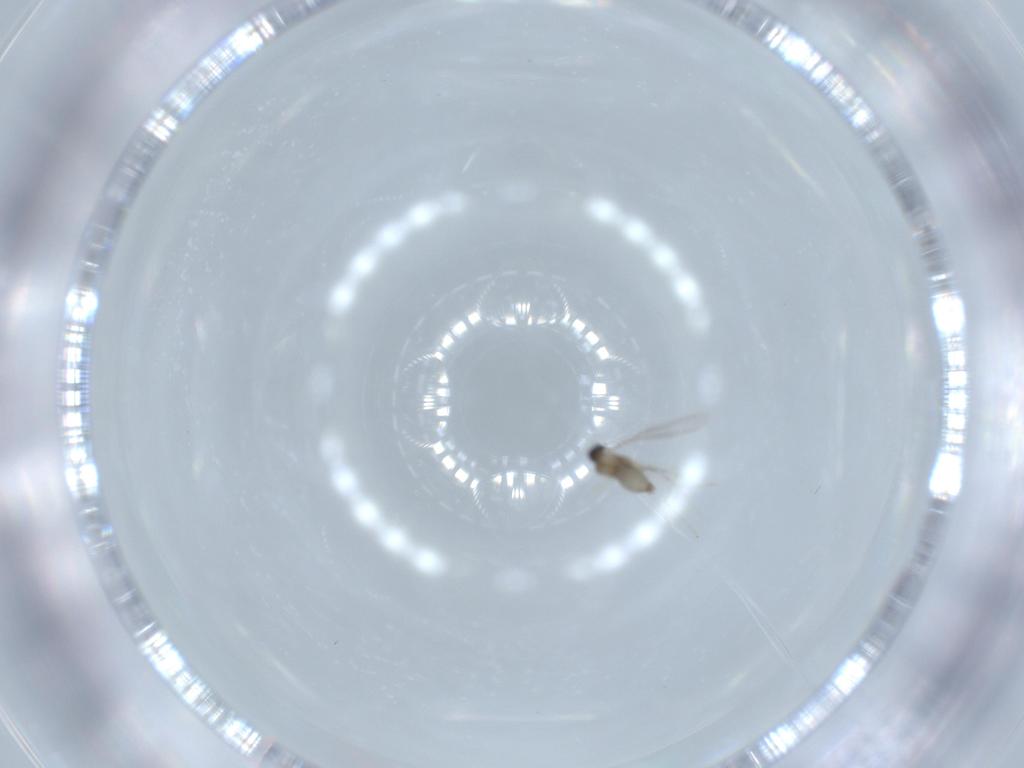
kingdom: Animalia
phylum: Arthropoda
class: Insecta
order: Diptera
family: Cecidomyiidae
